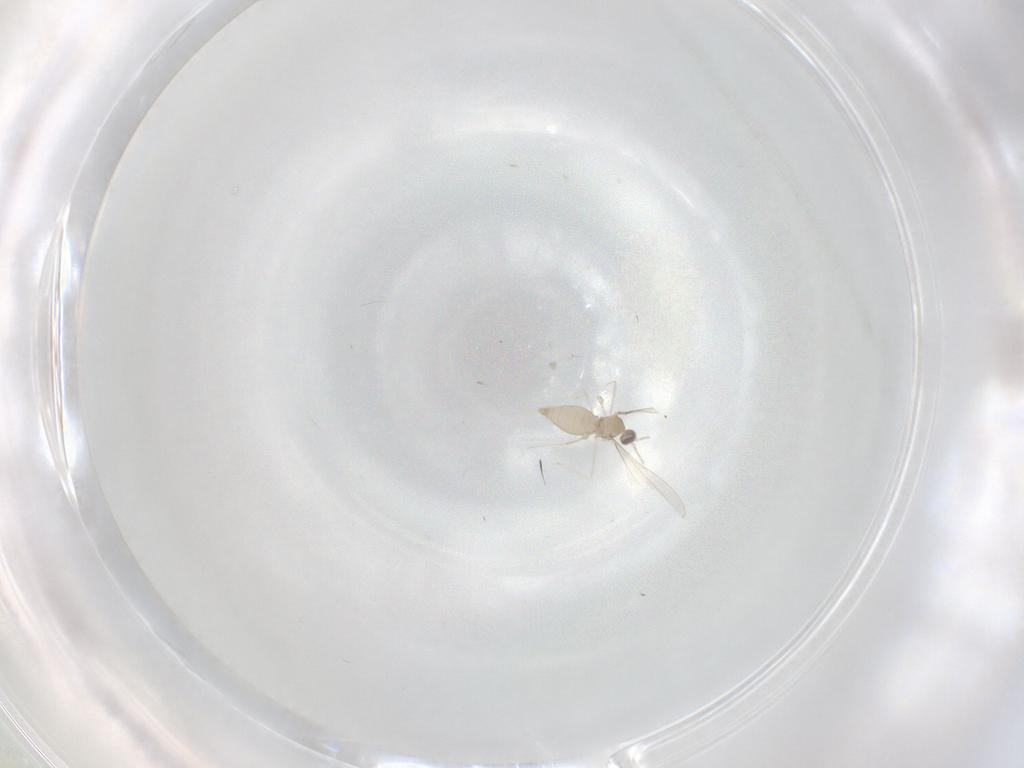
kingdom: Animalia
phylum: Arthropoda
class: Insecta
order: Diptera
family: Cecidomyiidae
